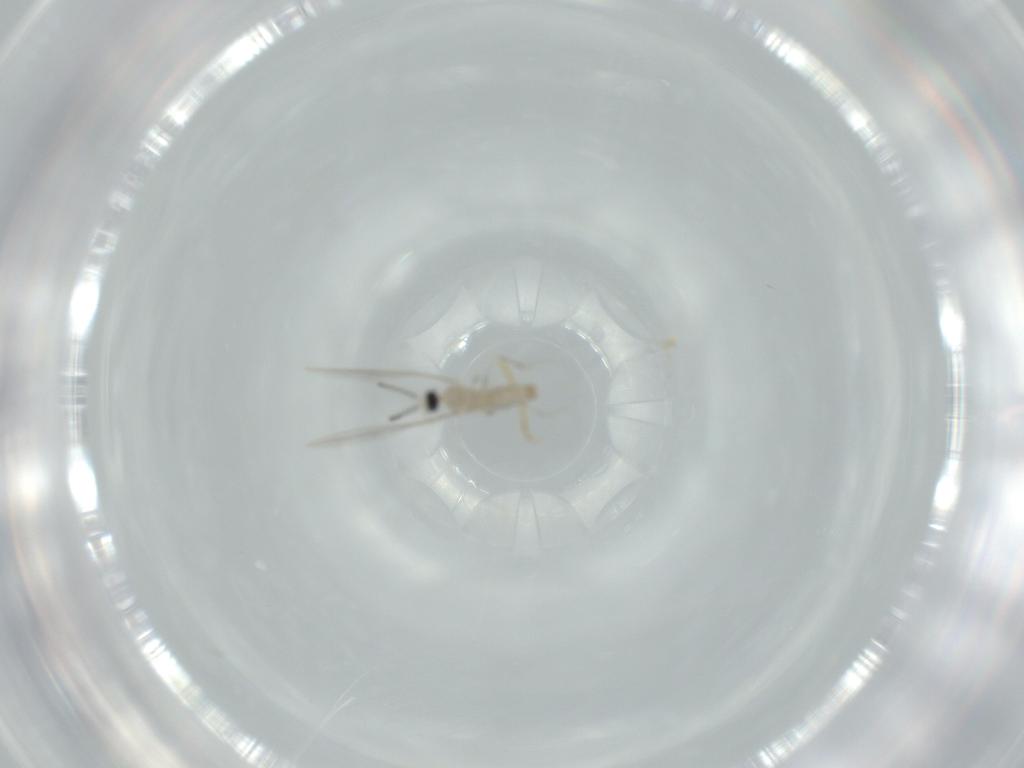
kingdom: Animalia
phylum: Arthropoda
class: Insecta
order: Diptera
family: Cecidomyiidae
